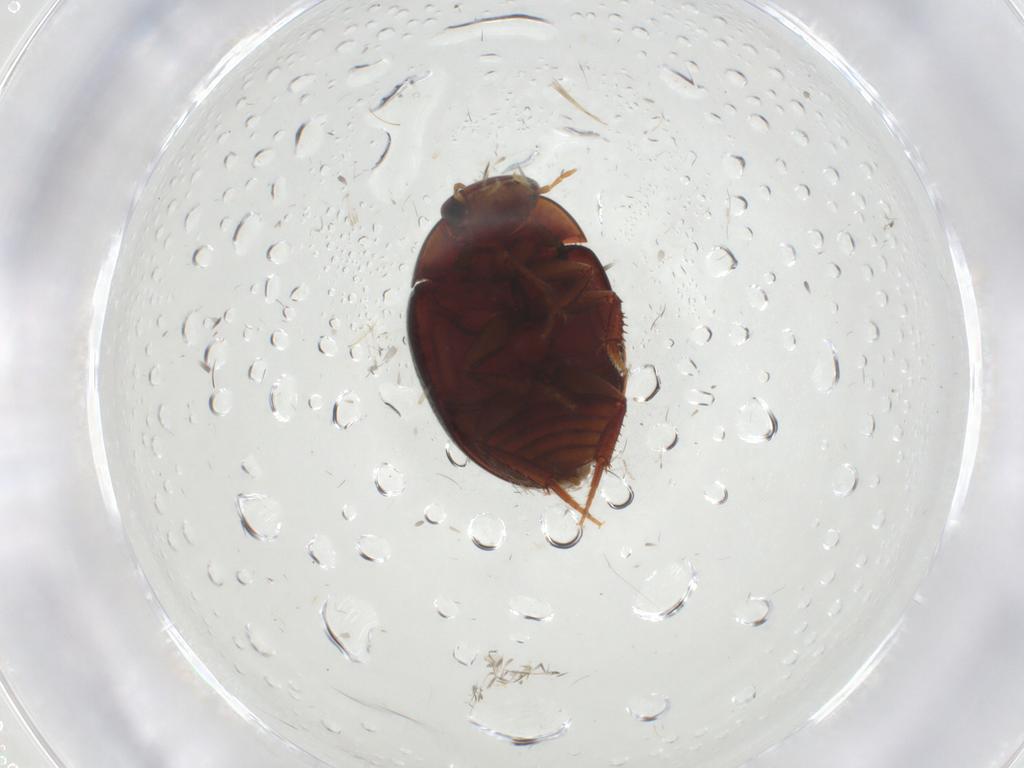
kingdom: Animalia
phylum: Arthropoda
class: Insecta
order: Coleoptera
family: Hydrophilidae
